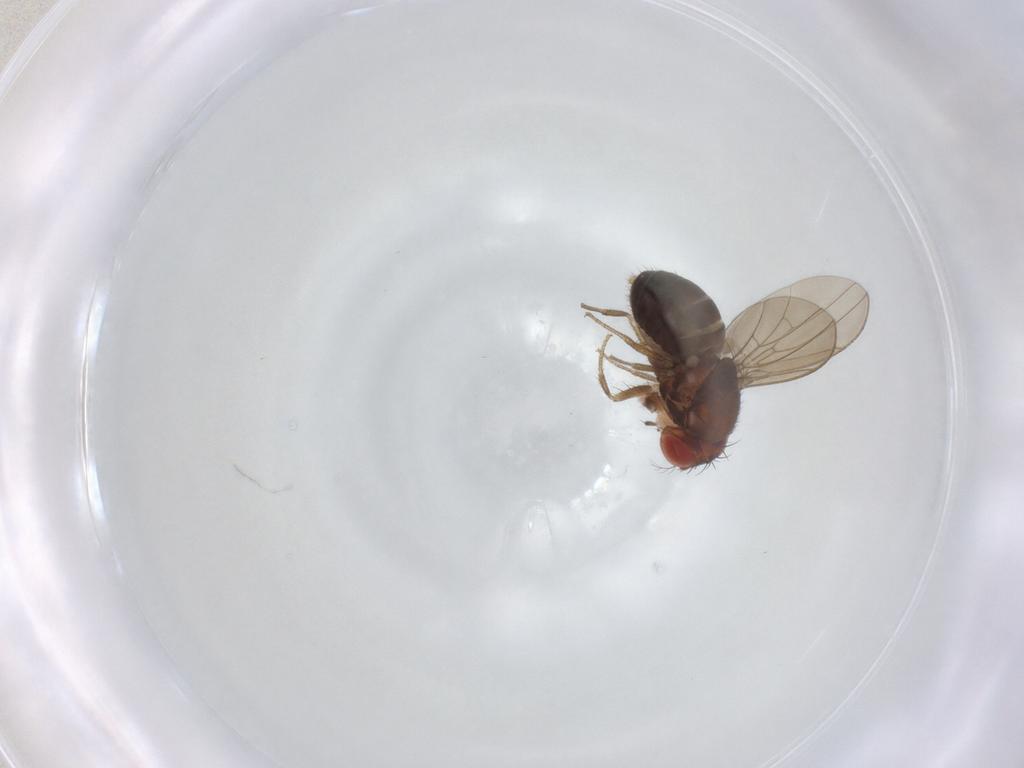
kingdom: Animalia
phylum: Arthropoda
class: Insecta
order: Diptera
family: Drosophilidae
